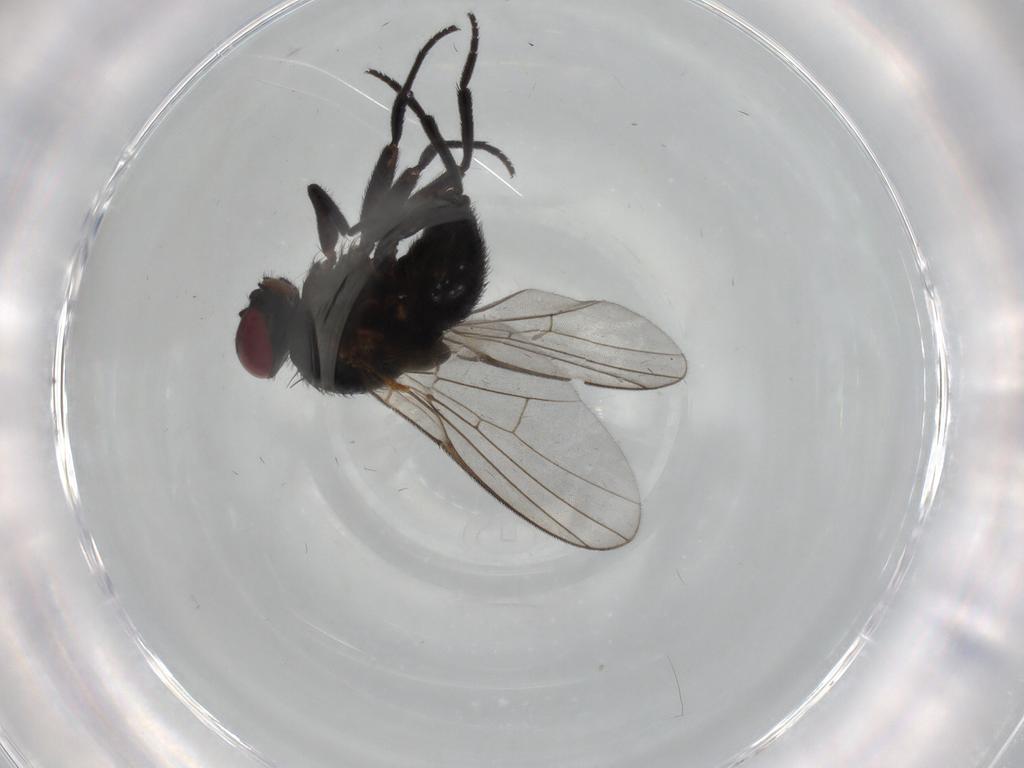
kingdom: Animalia
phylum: Arthropoda
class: Insecta
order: Diptera
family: Agromyzidae
